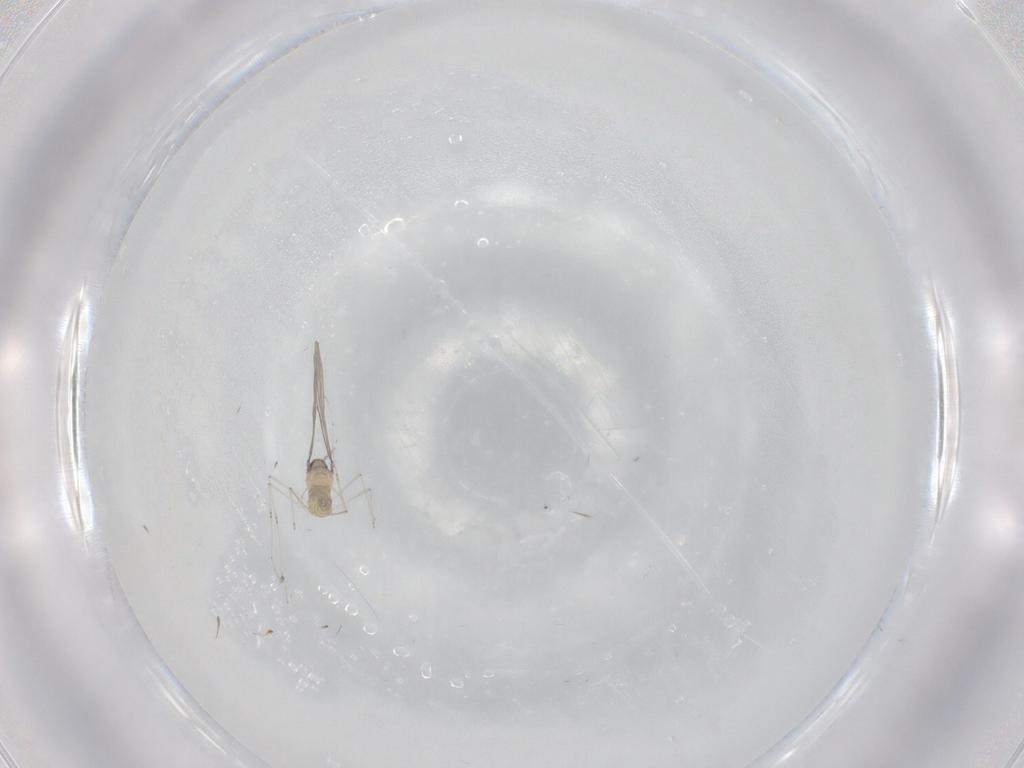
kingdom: Animalia
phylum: Arthropoda
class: Insecta
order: Diptera
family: Cecidomyiidae
